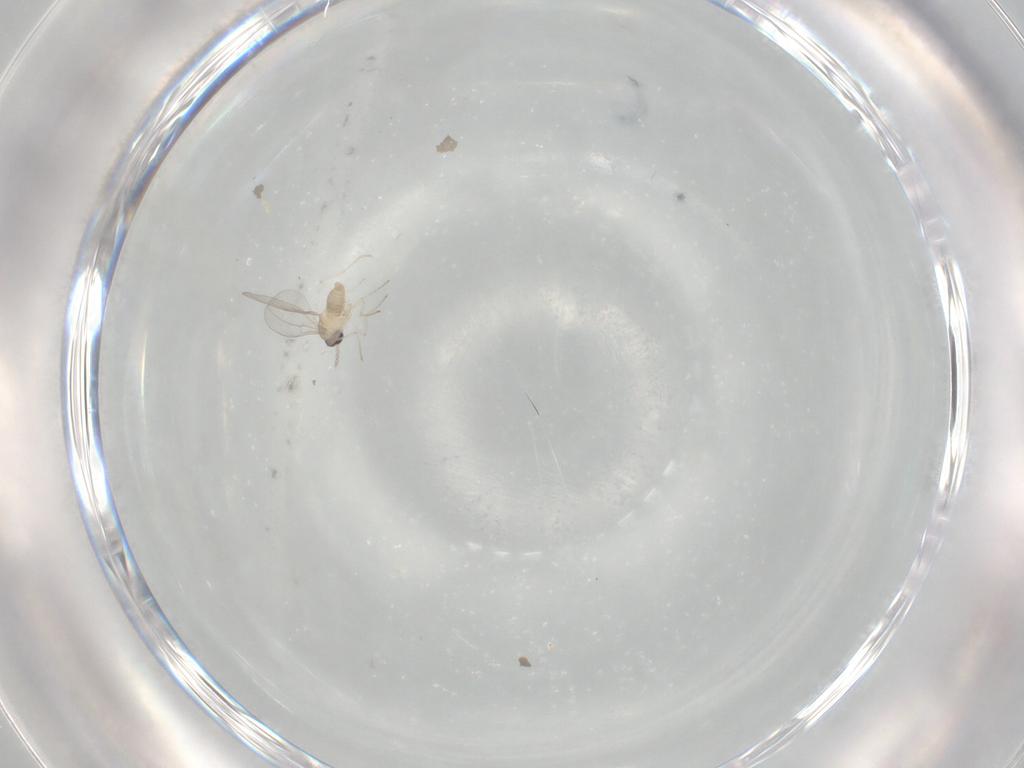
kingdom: Animalia
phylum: Arthropoda
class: Insecta
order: Diptera
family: Cecidomyiidae
